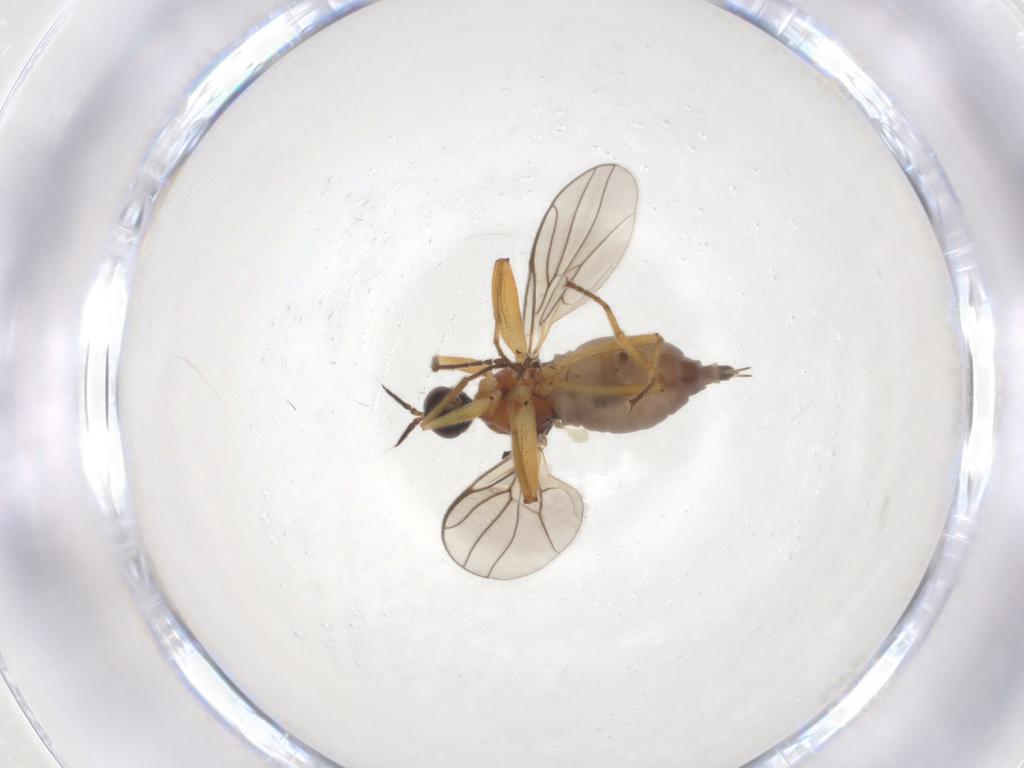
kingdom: Animalia
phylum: Arthropoda
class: Insecta
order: Diptera
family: Hybotidae
